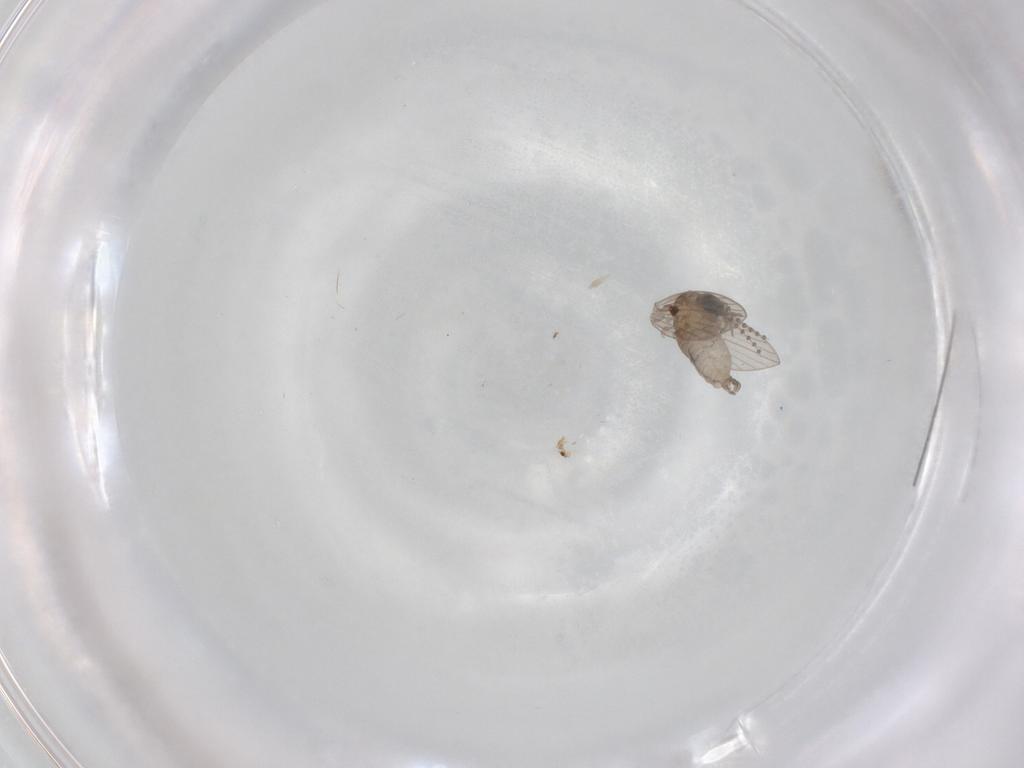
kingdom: Animalia
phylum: Arthropoda
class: Insecta
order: Diptera
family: Psychodidae
